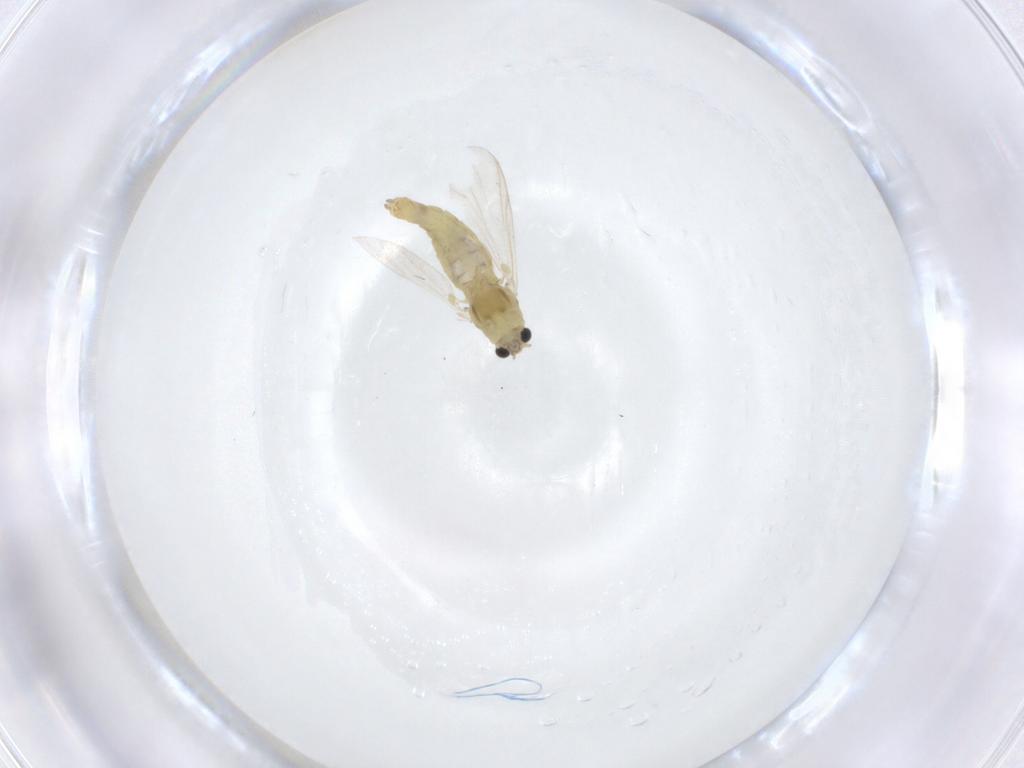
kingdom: Animalia
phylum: Arthropoda
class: Insecta
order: Diptera
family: Chironomidae
